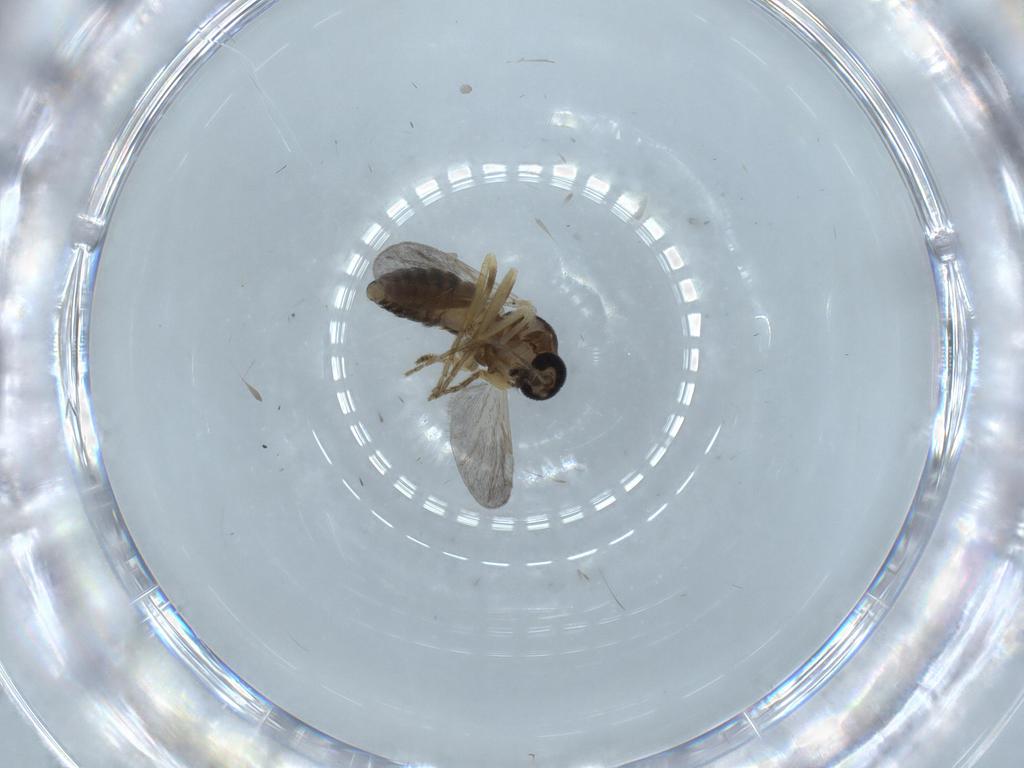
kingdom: Animalia
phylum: Arthropoda
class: Insecta
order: Diptera
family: Ceratopogonidae
